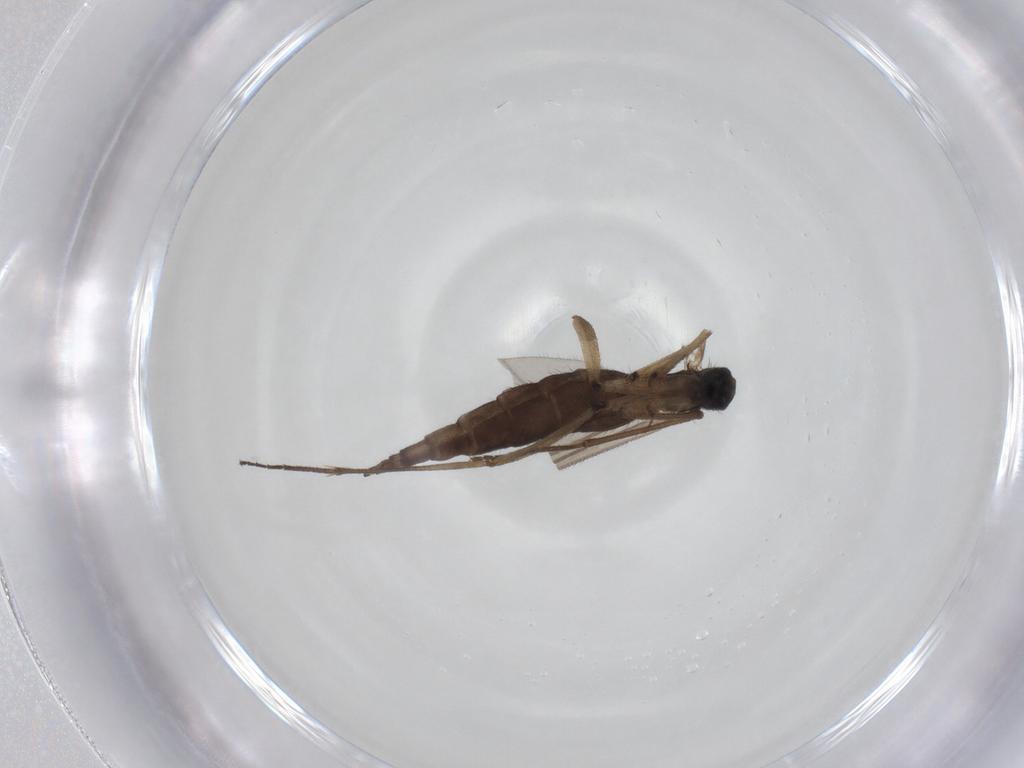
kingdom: Animalia
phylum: Arthropoda
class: Insecta
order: Diptera
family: Sciaridae
